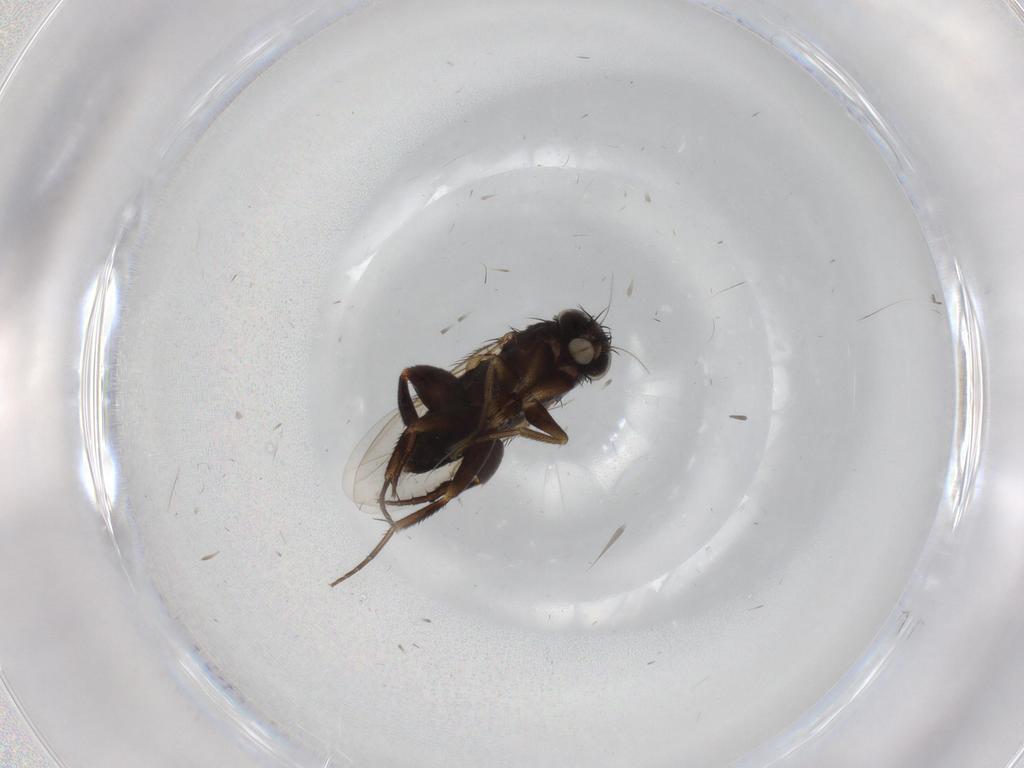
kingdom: Animalia
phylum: Arthropoda
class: Insecta
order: Diptera
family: Phoridae
